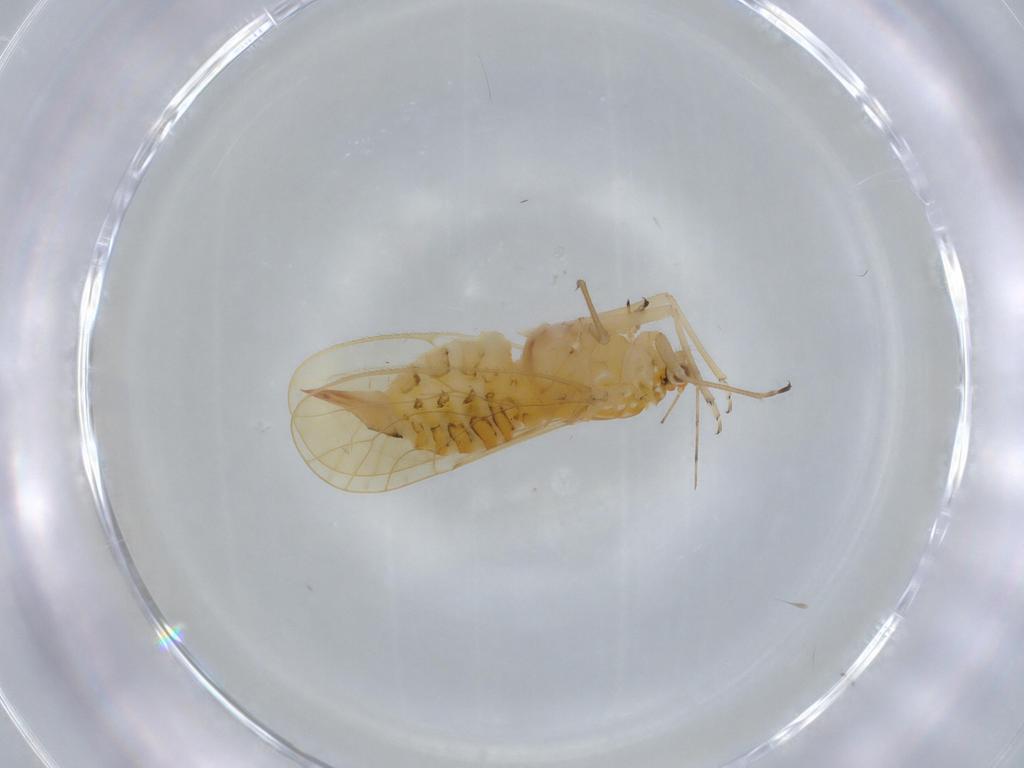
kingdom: Animalia
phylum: Arthropoda
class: Insecta
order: Hemiptera
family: Psyllidae
